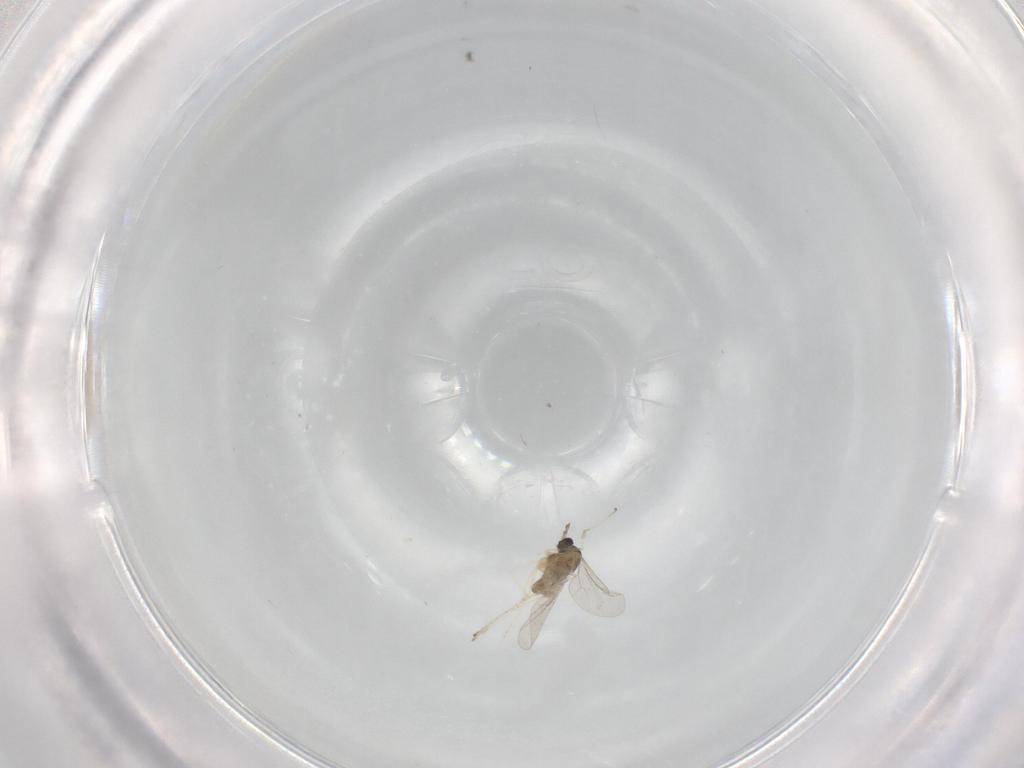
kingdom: Animalia
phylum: Arthropoda
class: Insecta
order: Diptera
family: Cecidomyiidae
